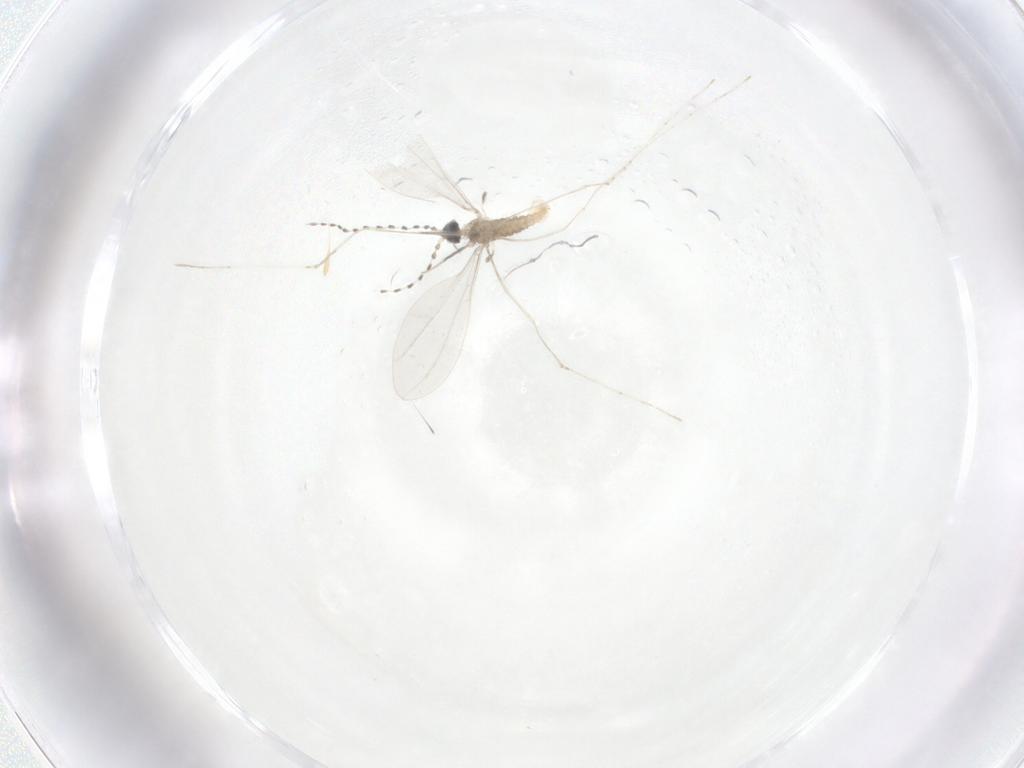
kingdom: Animalia
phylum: Arthropoda
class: Insecta
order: Diptera
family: Cecidomyiidae
